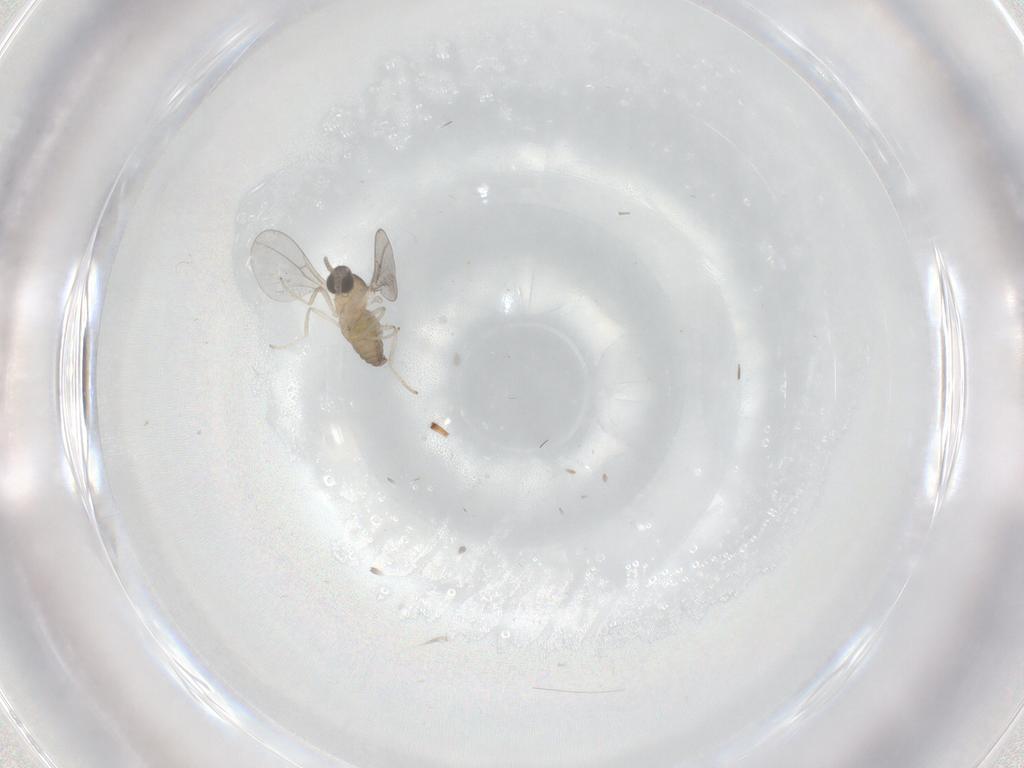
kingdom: Animalia
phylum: Arthropoda
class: Insecta
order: Diptera
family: Cecidomyiidae
